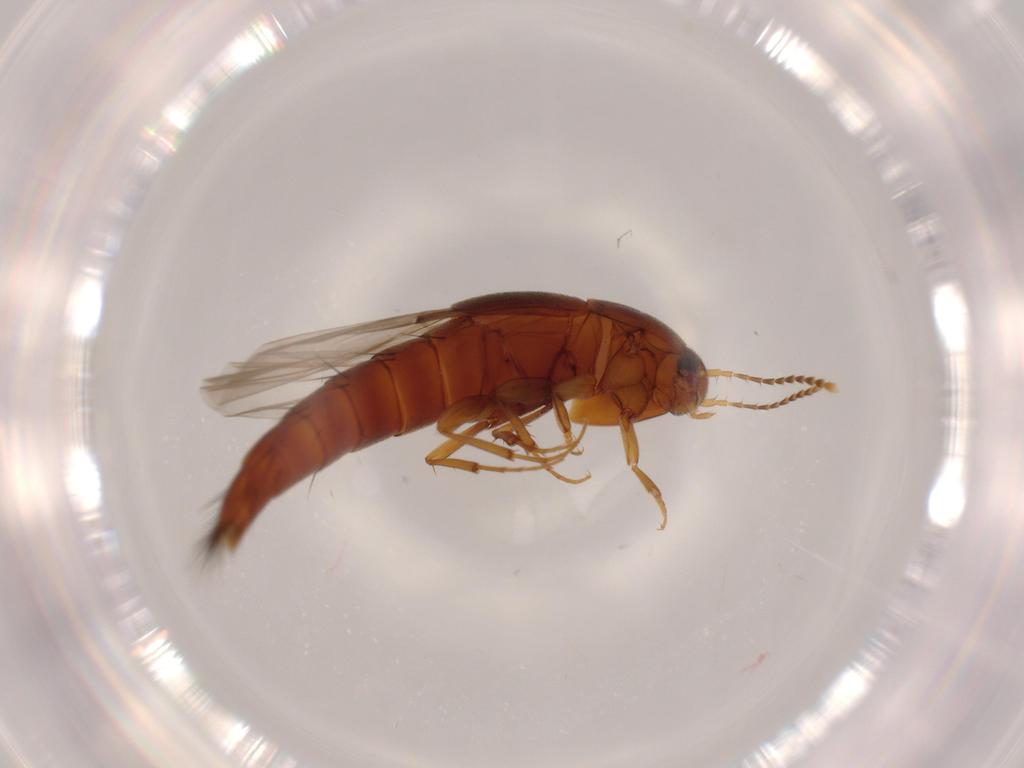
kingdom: Animalia
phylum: Arthropoda
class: Insecta
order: Coleoptera
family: Staphylinidae
